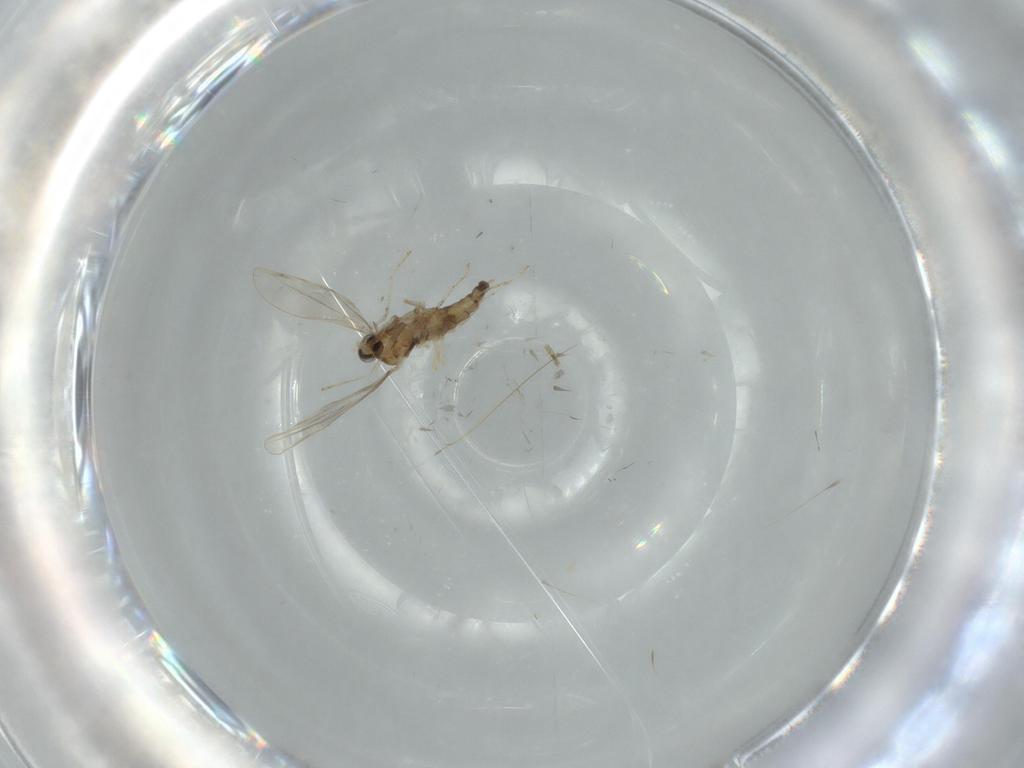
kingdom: Animalia
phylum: Arthropoda
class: Insecta
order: Diptera
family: Cecidomyiidae
